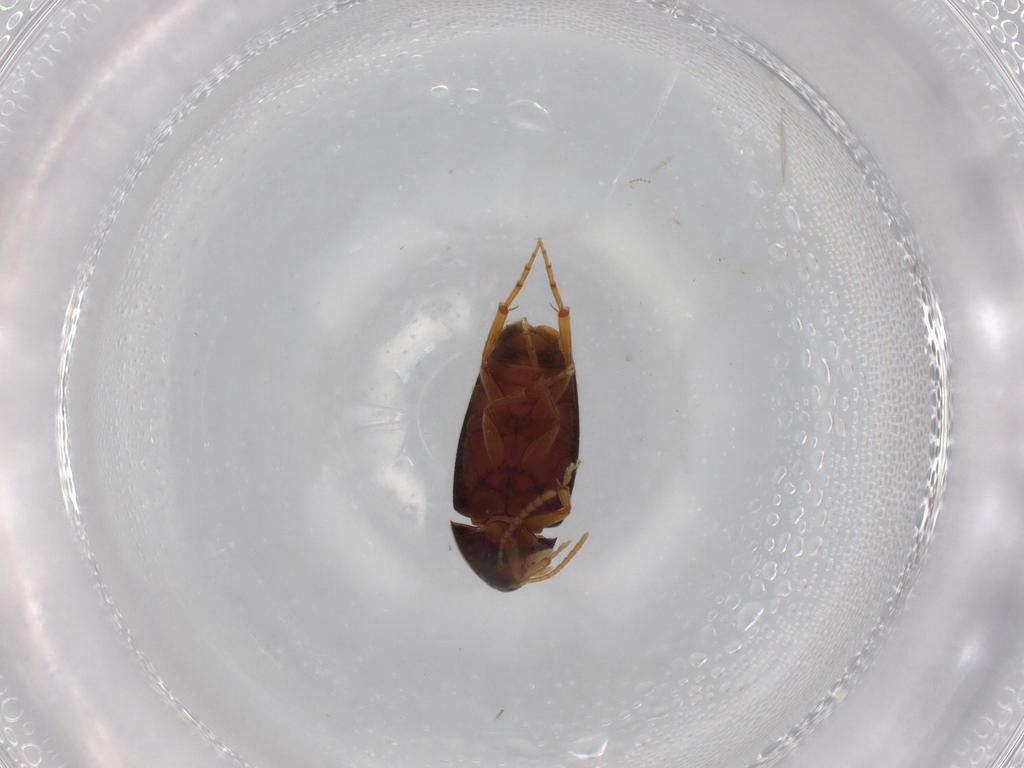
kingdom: Animalia
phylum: Arthropoda
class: Insecta
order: Coleoptera
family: Scraptiidae
